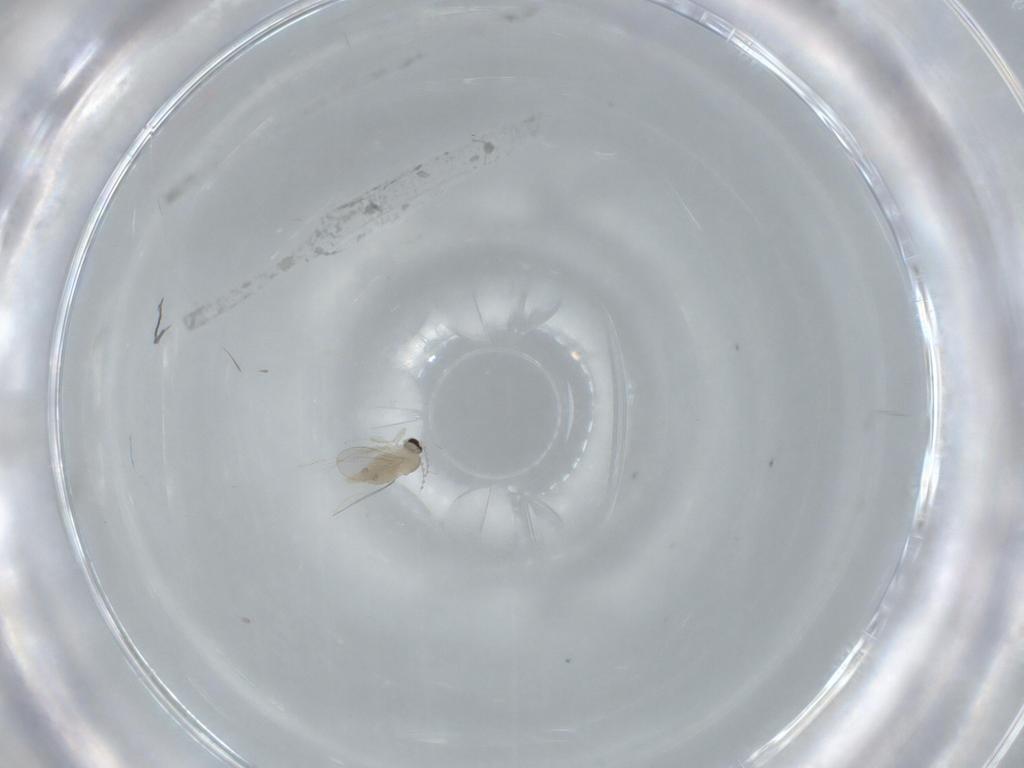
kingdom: Animalia
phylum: Arthropoda
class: Insecta
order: Diptera
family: Cecidomyiidae
